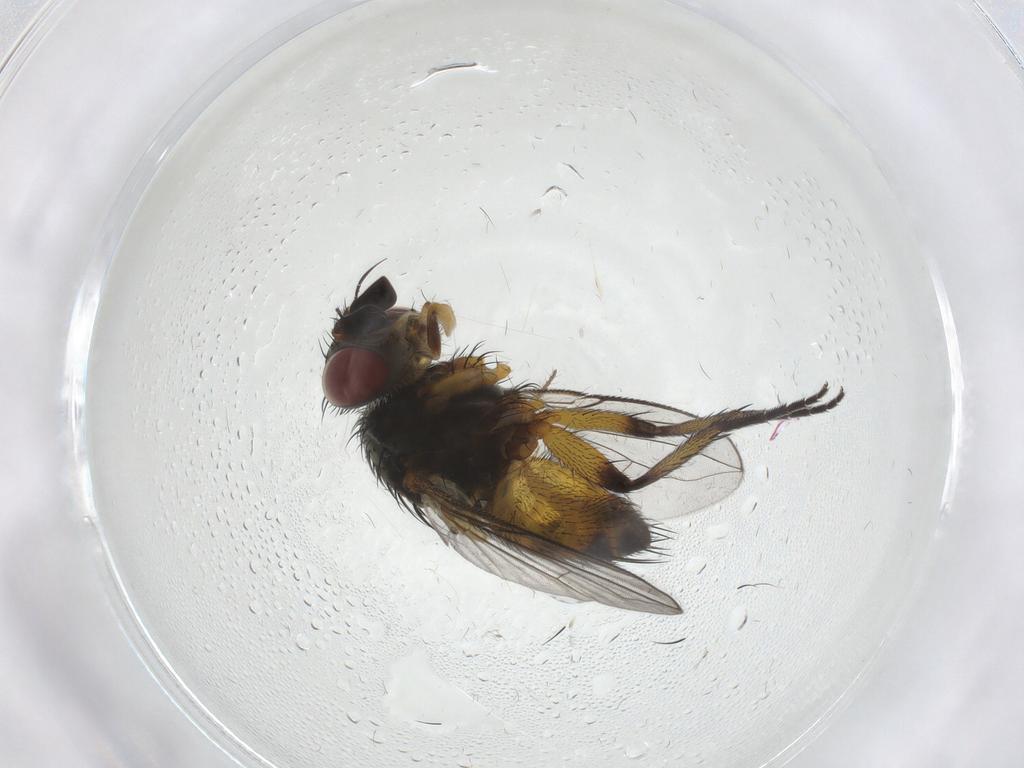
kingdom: Animalia
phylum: Arthropoda
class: Insecta
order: Diptera
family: Tachinidae
